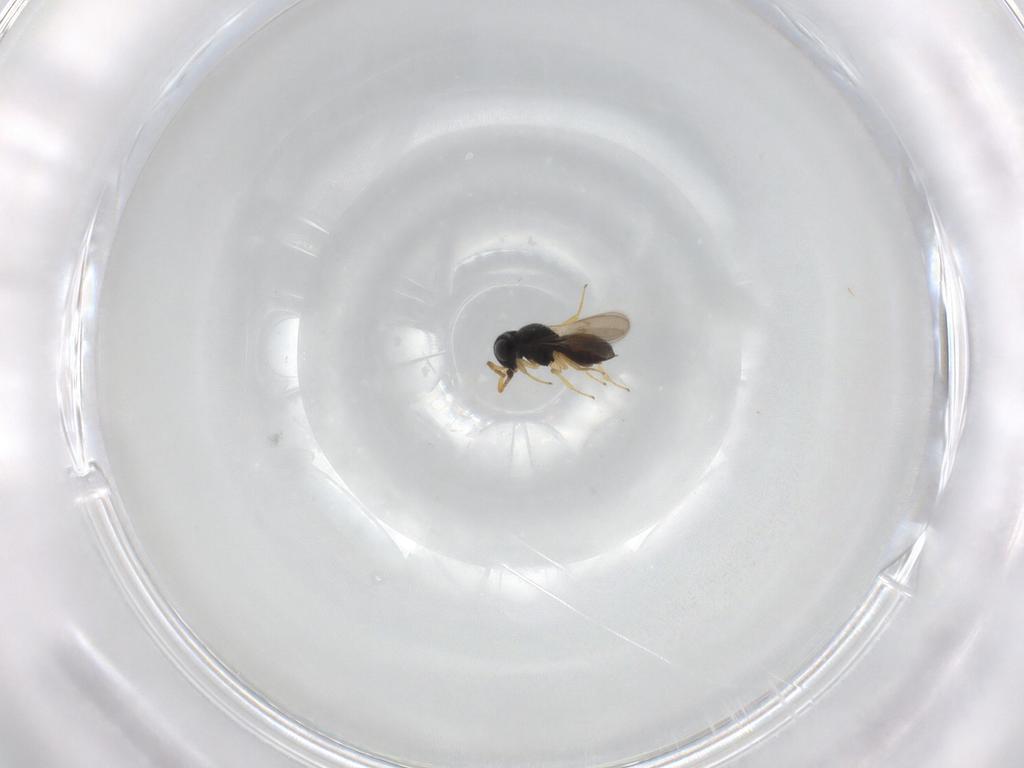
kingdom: Animalia
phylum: Arthropoda
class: Insecta
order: Hymenoptera
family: Scelionidae
